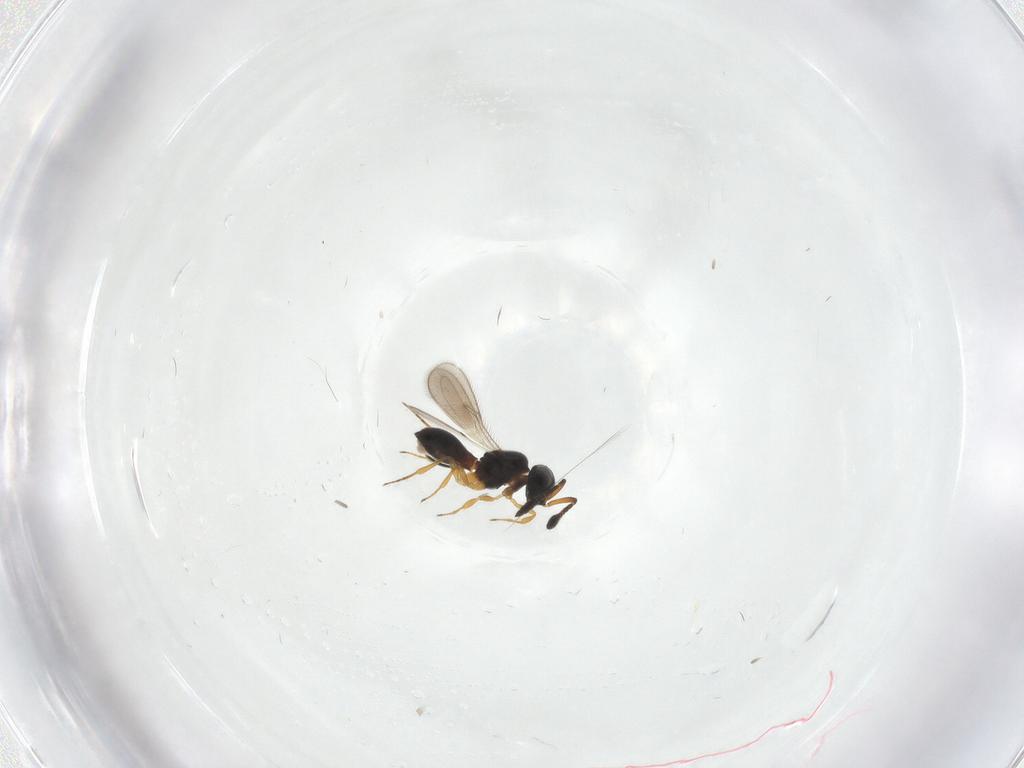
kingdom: Animalia
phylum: Arthropoda
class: Insecta
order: Hymenoptera
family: Scelionidae
